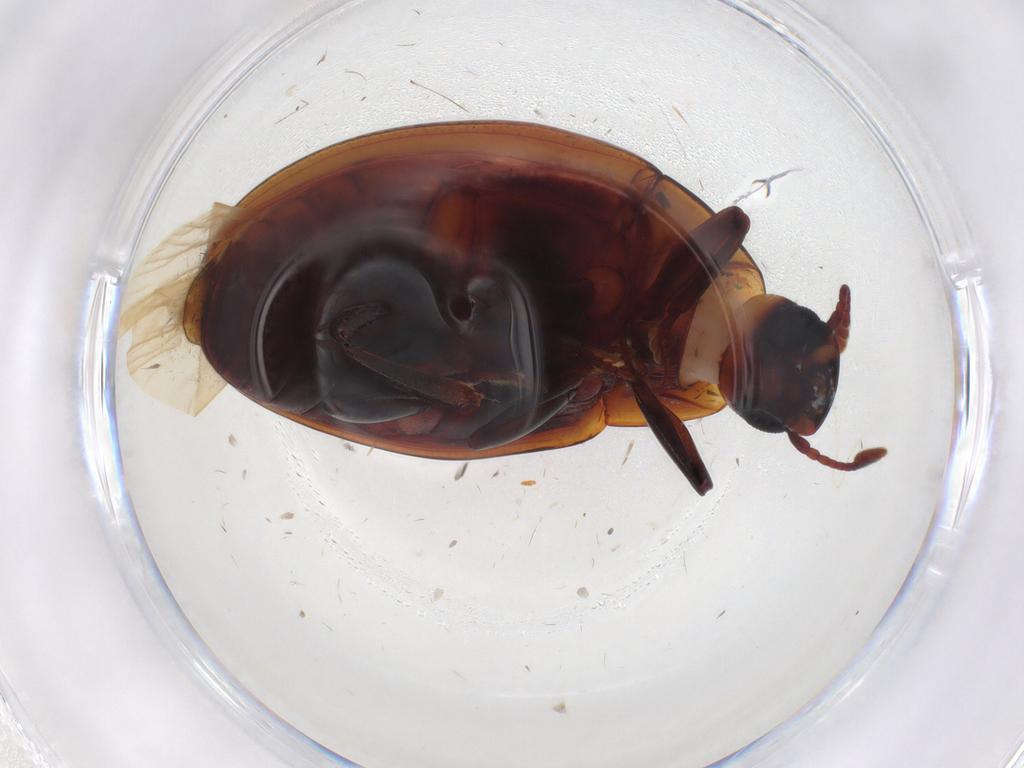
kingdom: Animalia
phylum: Arthropoda
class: Insecta
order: Coleoptera
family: Zopheridae
